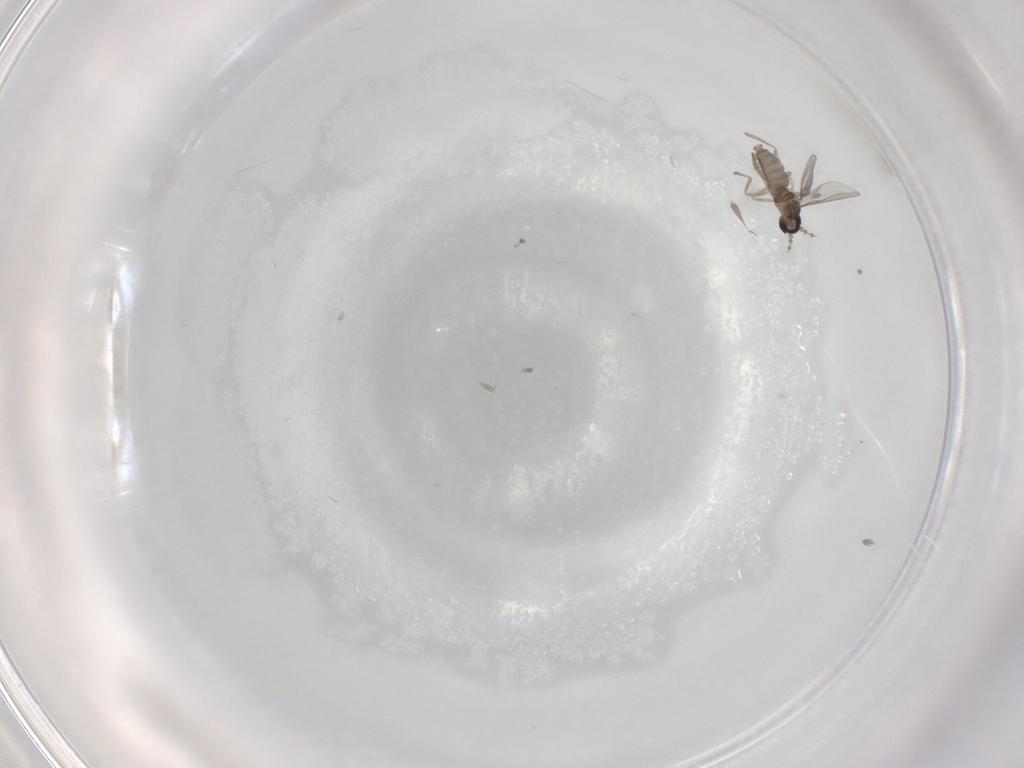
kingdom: Animalia
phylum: Arthropoda
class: Insecta
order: Diptera
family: Cecidomyiidae
